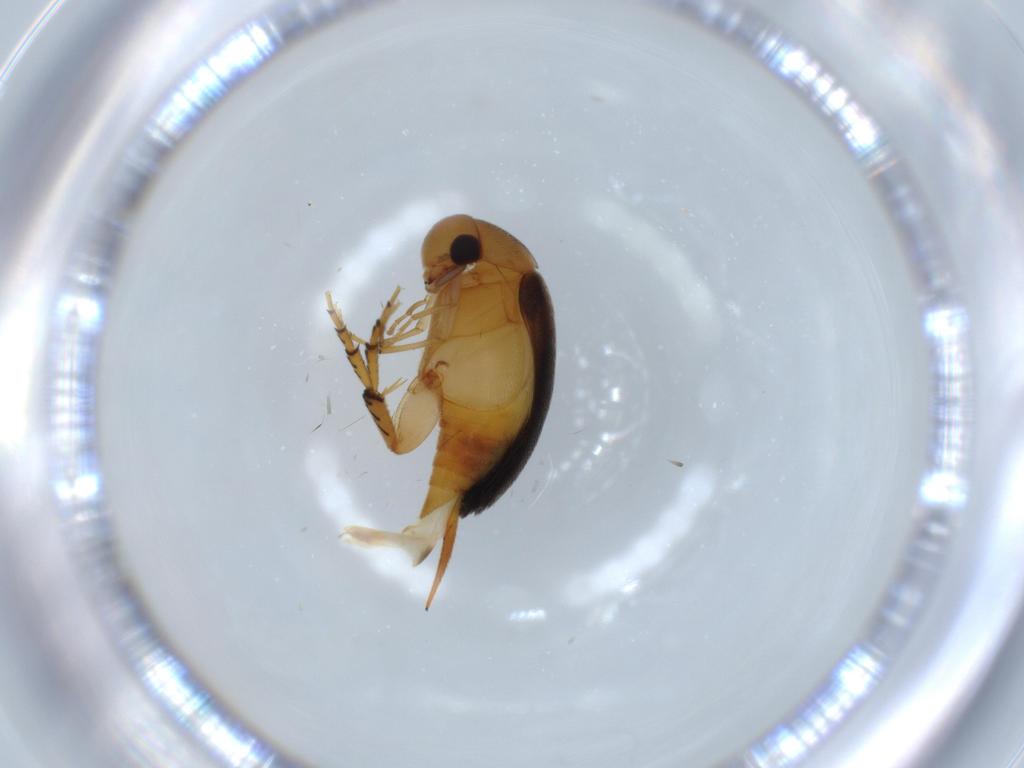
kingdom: Animalia
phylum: Arthropoda
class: Insecta
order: Coleoptera
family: Mordellidae
